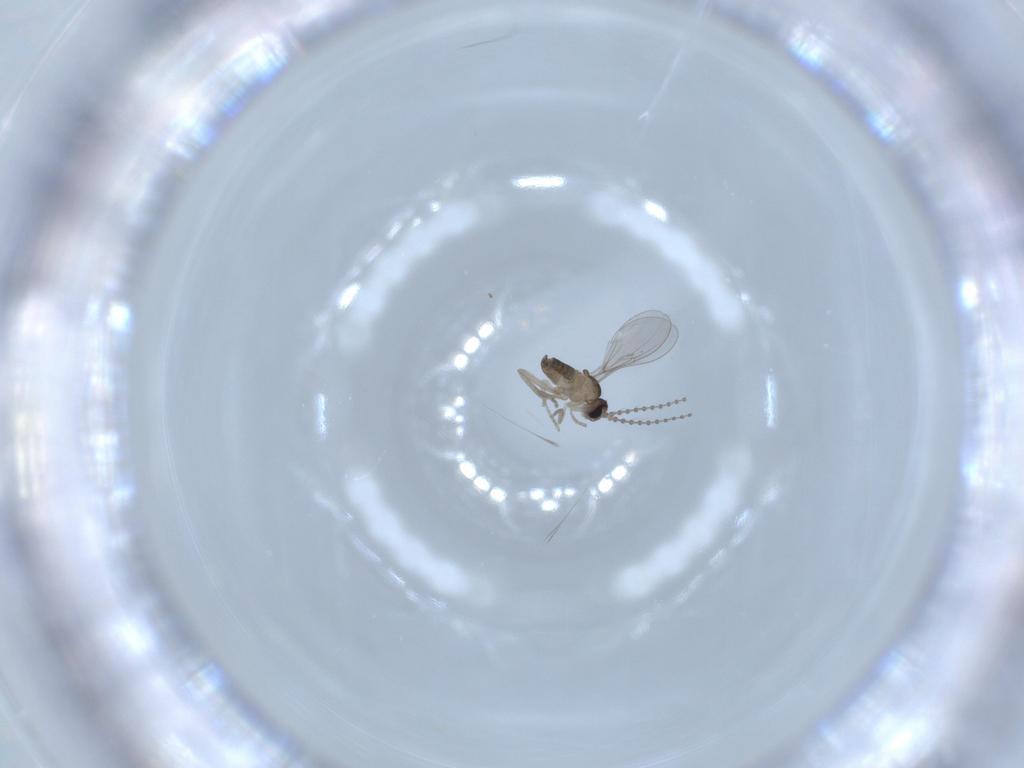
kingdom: Animalia
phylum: Arthropoda
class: Insecta
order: Diptera
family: Cecidomyiidae
